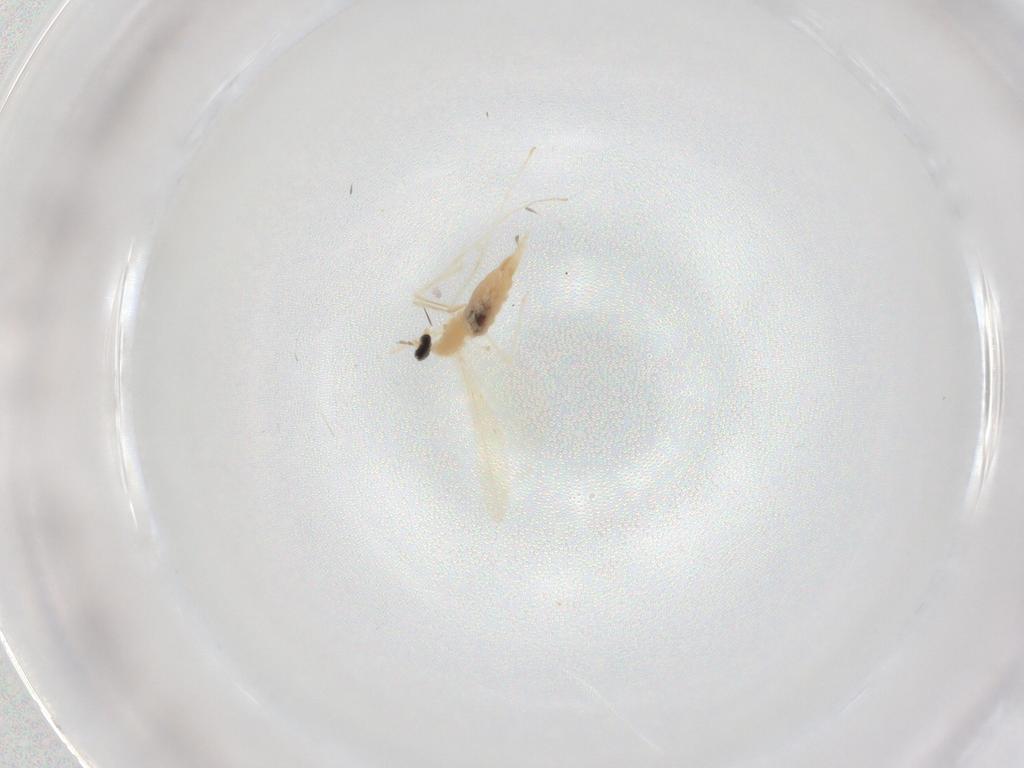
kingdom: Animalia
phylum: Arthropoda
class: Insecta
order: Diptera
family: Cecidomyiidae
